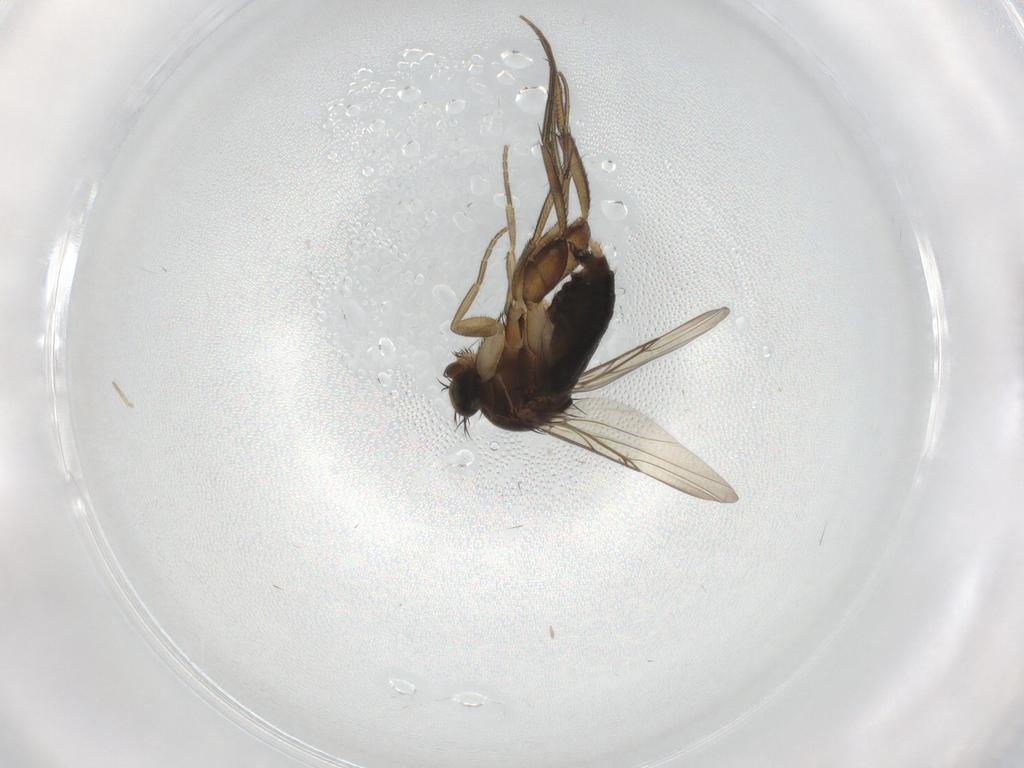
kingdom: Animalia
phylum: Arthropoda
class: Insecta
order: Diptera
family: Phoridae
